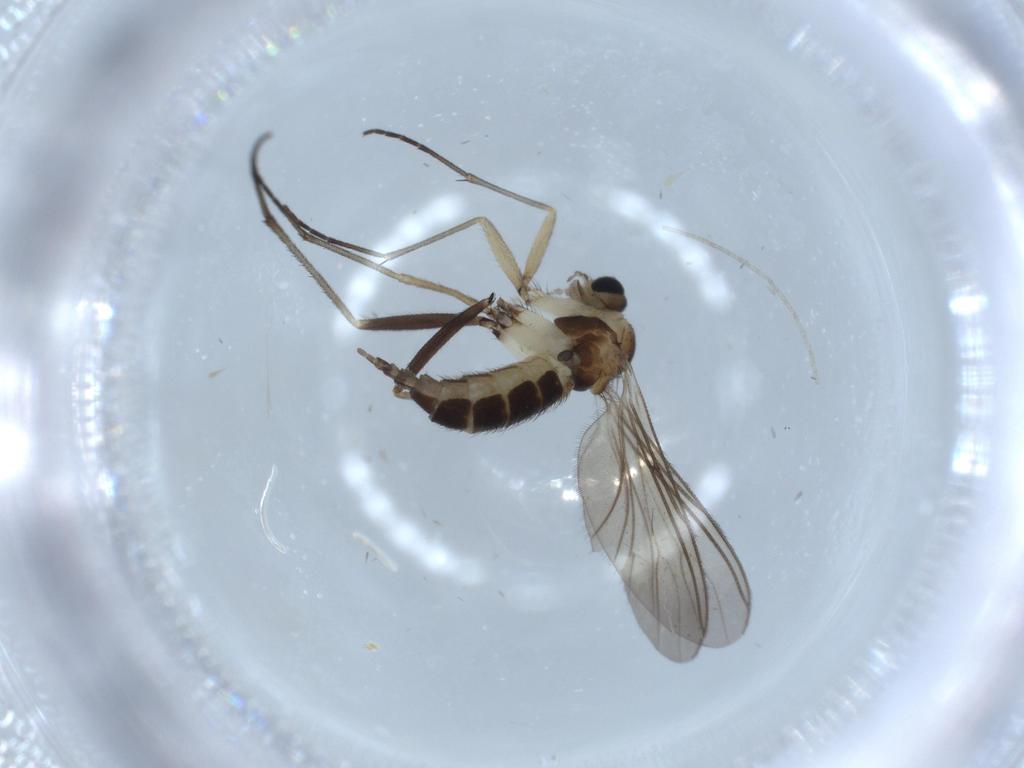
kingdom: Animalia
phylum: Arthropoda
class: Insecta
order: Diptera
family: Sciaridae
